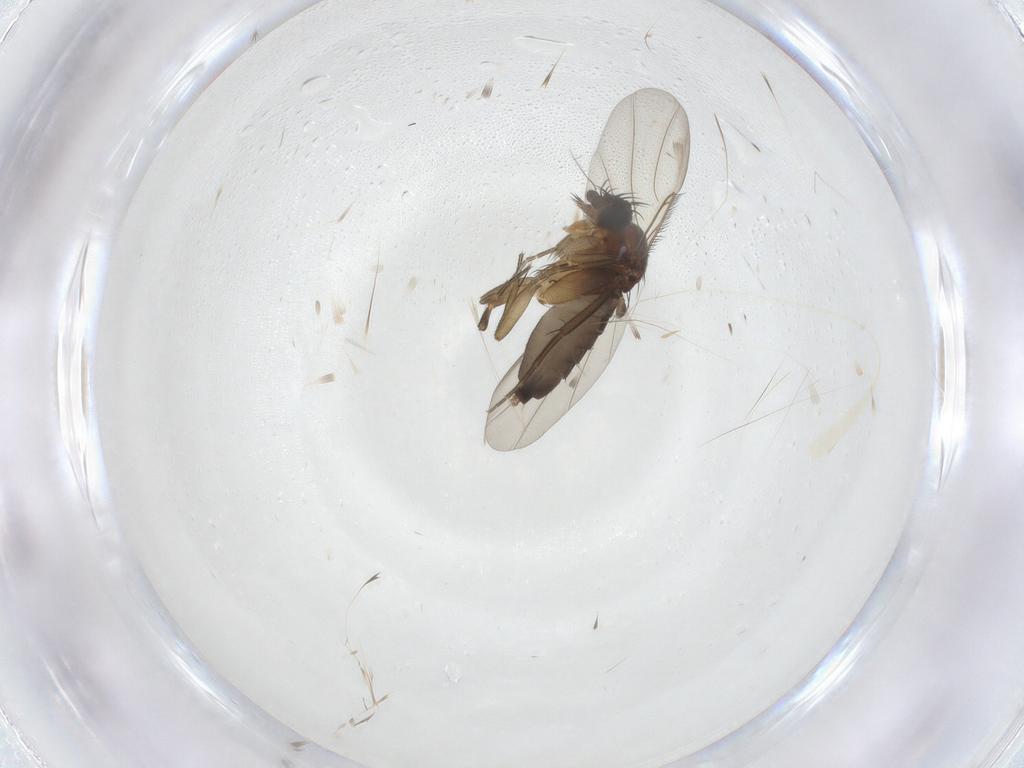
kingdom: Animalia
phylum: Arthropoda
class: Insecta
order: Diptera
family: Phoridae
